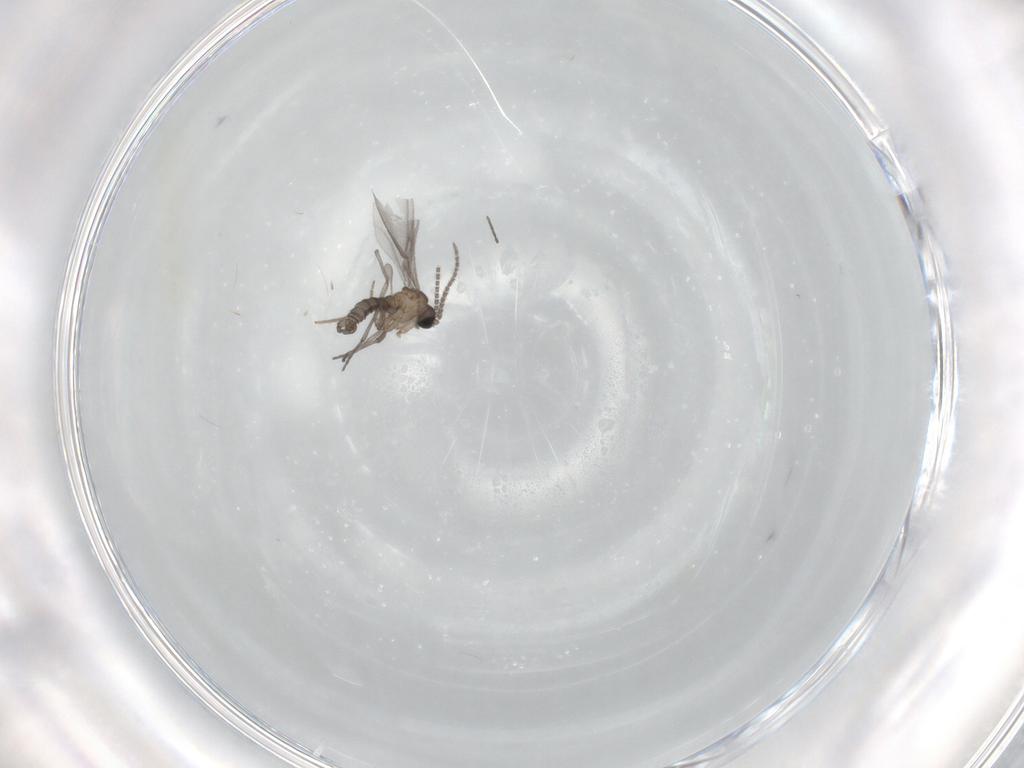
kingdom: Animalia
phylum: Arthropoda
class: Insecta
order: Diptera
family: Sciaridae
